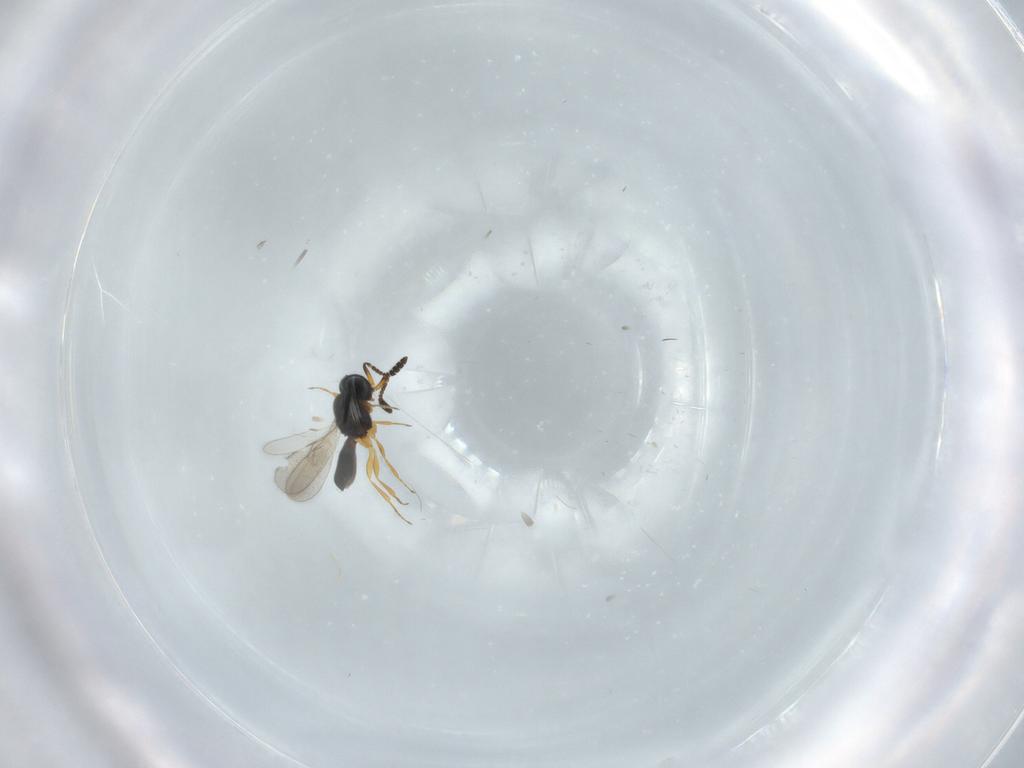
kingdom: Animalia
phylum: Arthropoda
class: Insecta
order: Hymenoptera
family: Scelionidae
